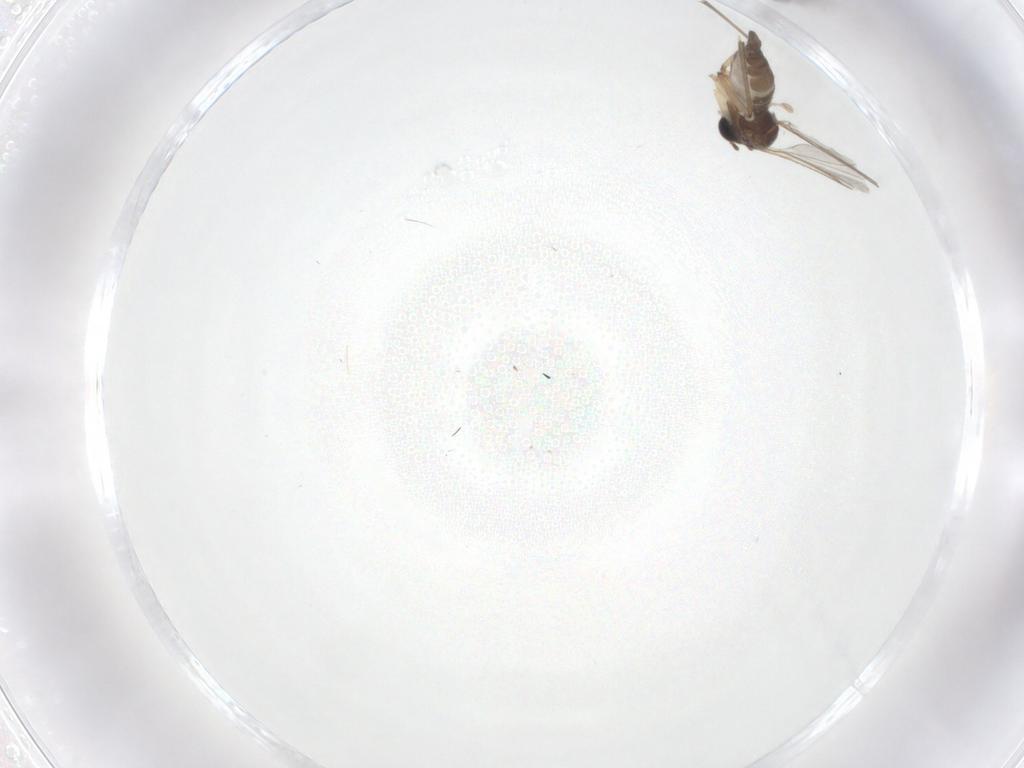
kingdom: Animalia
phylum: Arthropoda
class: Insecta
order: Diptera
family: Sciaridae
